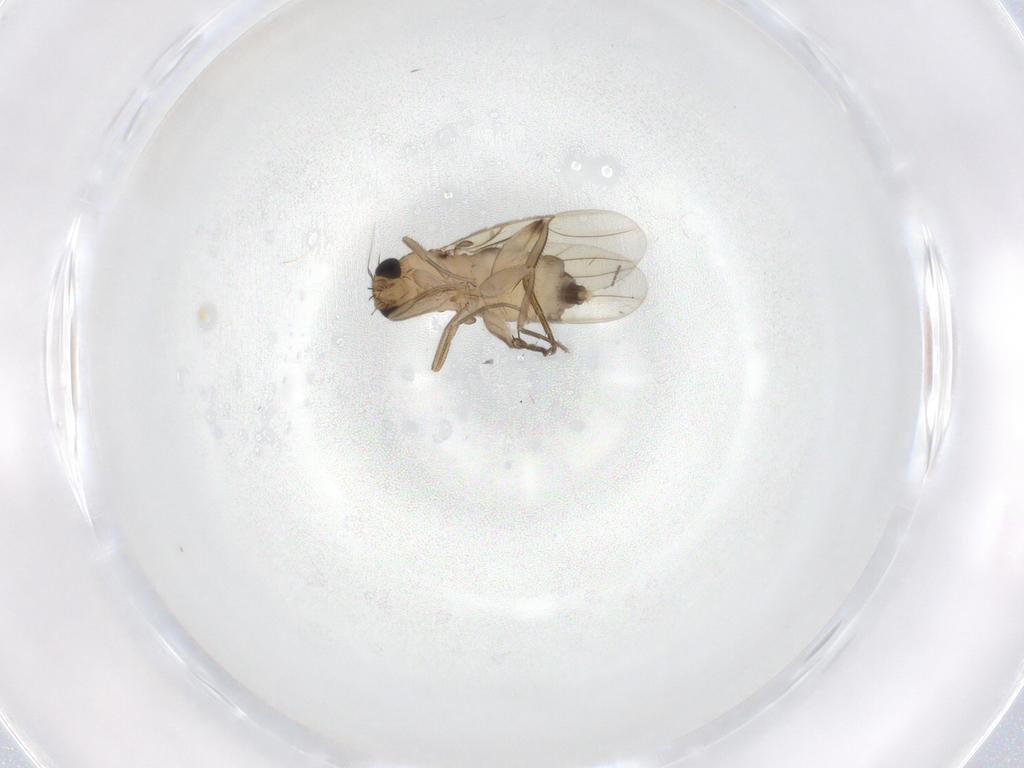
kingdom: Animalia
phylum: Arthropoda
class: Insecta
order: Diptera
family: Phoridae
